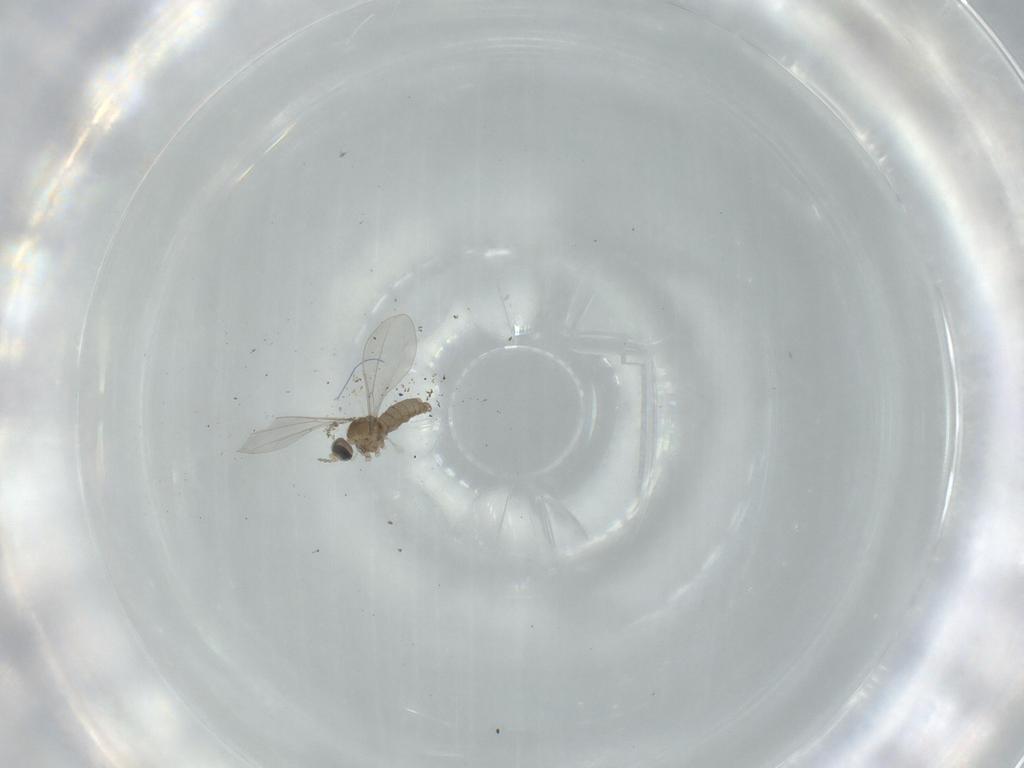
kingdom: Animalia
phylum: Arthropoda
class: Insecta
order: Diptera
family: Cecidomyiidae
